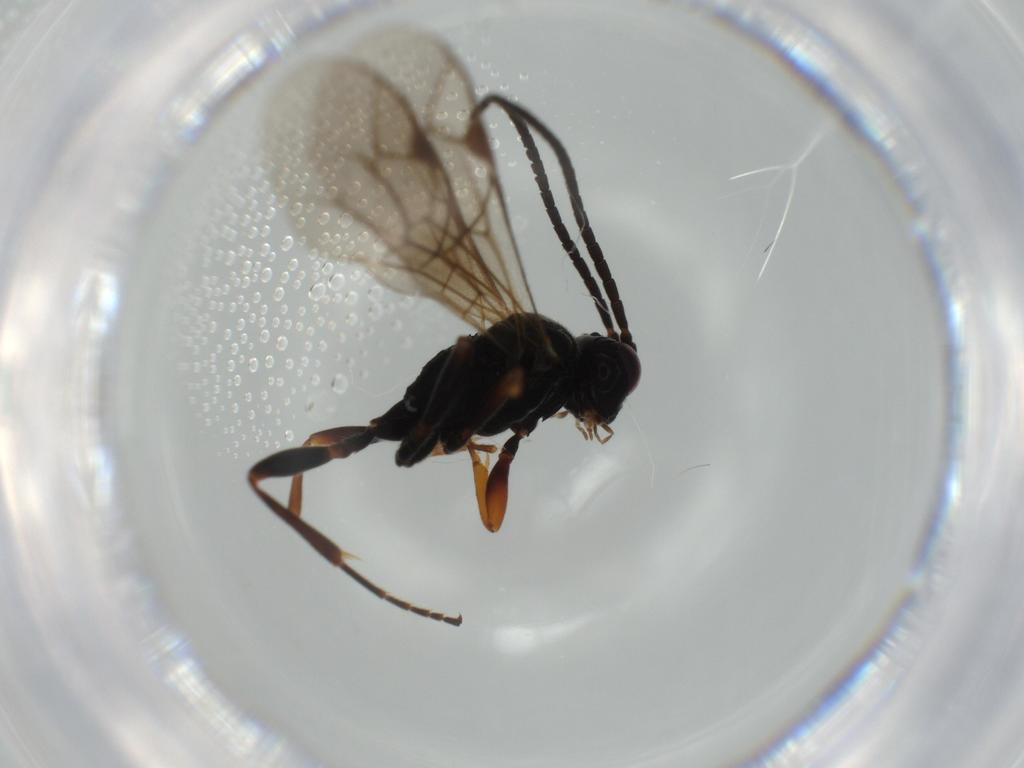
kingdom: Animalia
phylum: Arthropoda
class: Insecta
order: Hymenoptera
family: Ichneumonidae
